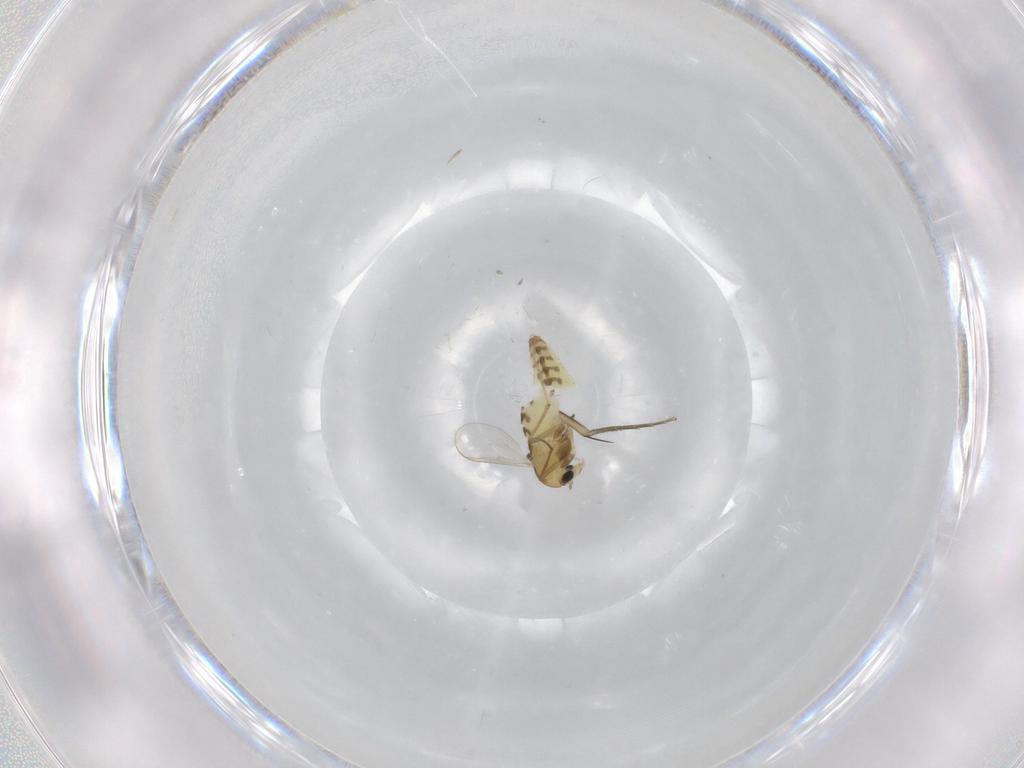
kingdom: Animalia
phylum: Arthropoda
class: Insecta
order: Diptera
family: Chironomidae
